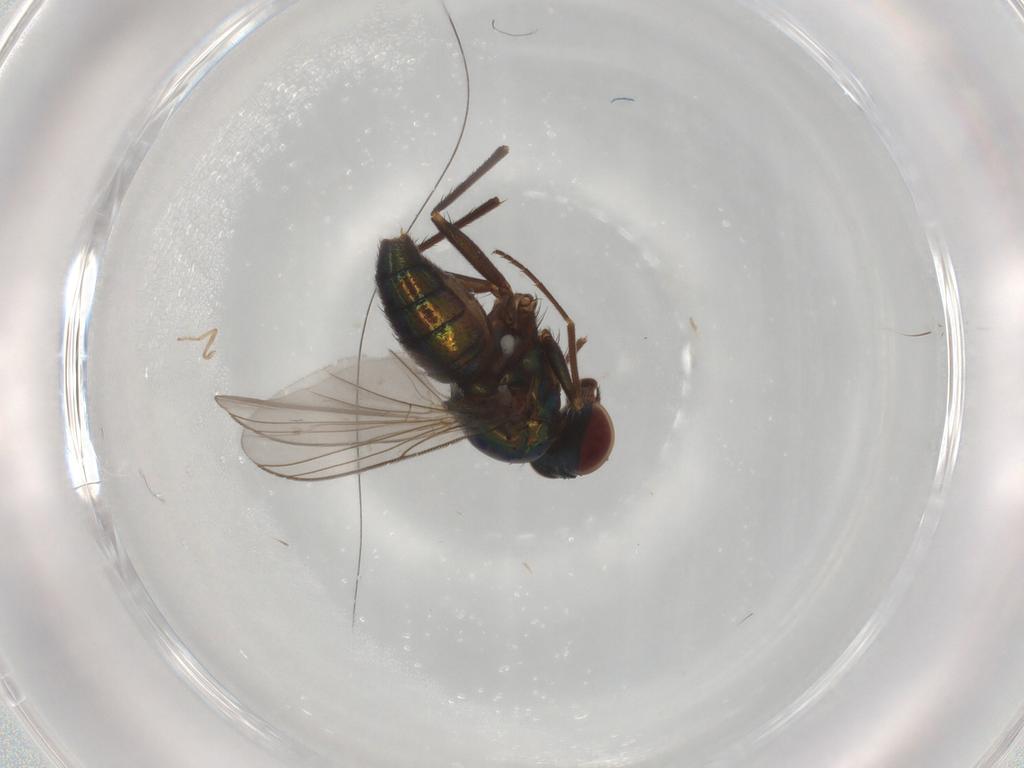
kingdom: Animalia
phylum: Arthropoda
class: Insecta
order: Diptera
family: Dolichopodidae
